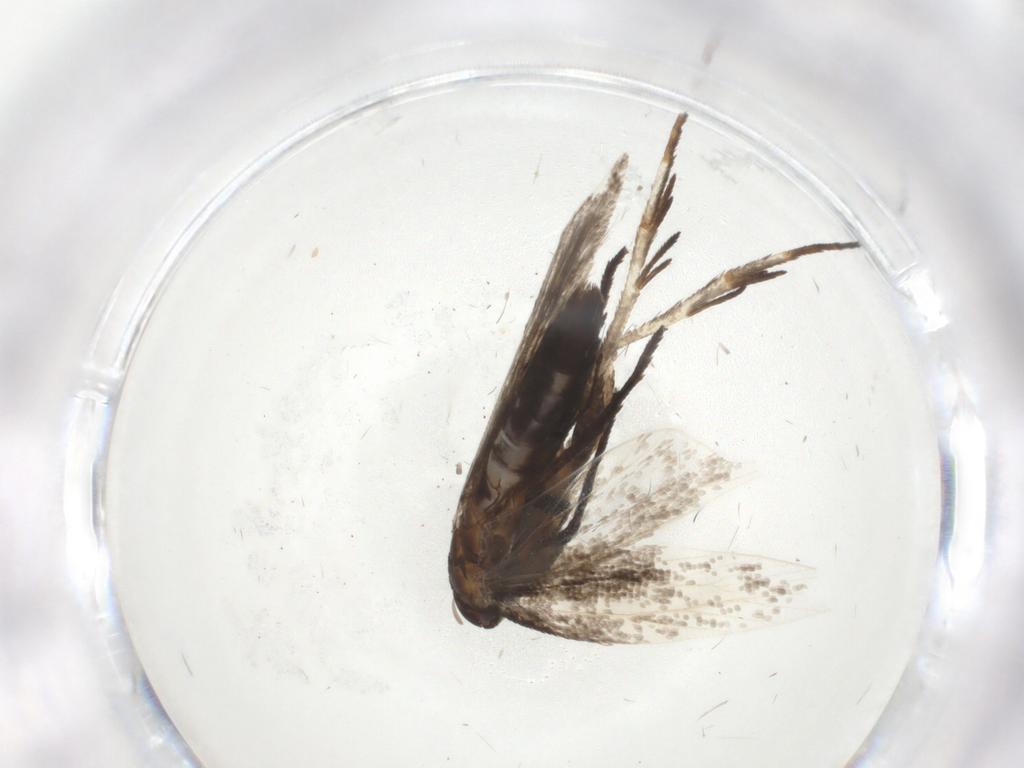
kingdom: Animalia
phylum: Arthropoda
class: Insecta
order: Lepidoptera
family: Gelechiidae
